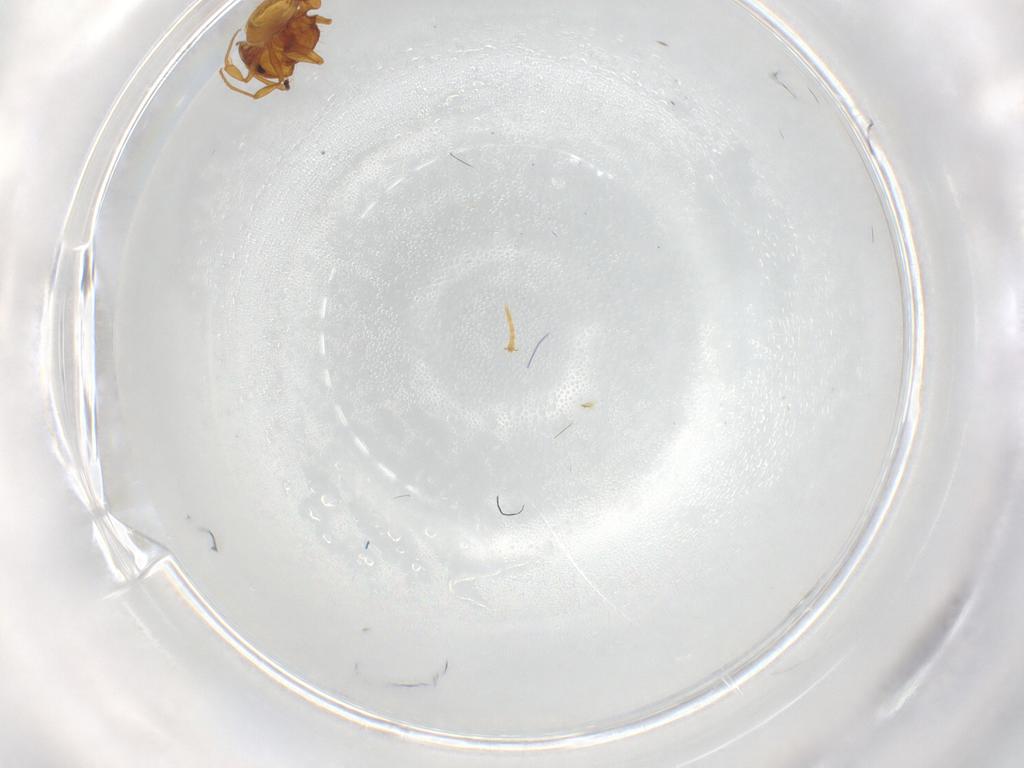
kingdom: Animalia
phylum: Arthropoda
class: Insecta
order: Hymenoptera
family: Formicidae
